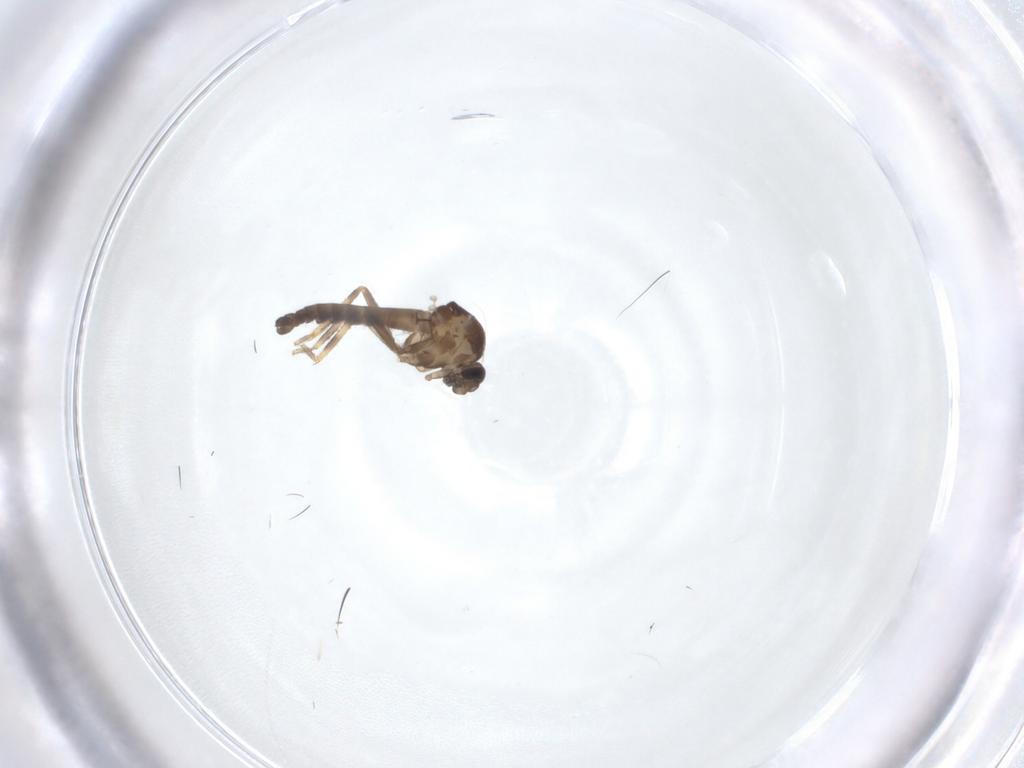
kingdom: Animalia
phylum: Arthropoda
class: Insecta
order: Diptera
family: Ceratopogonidae
